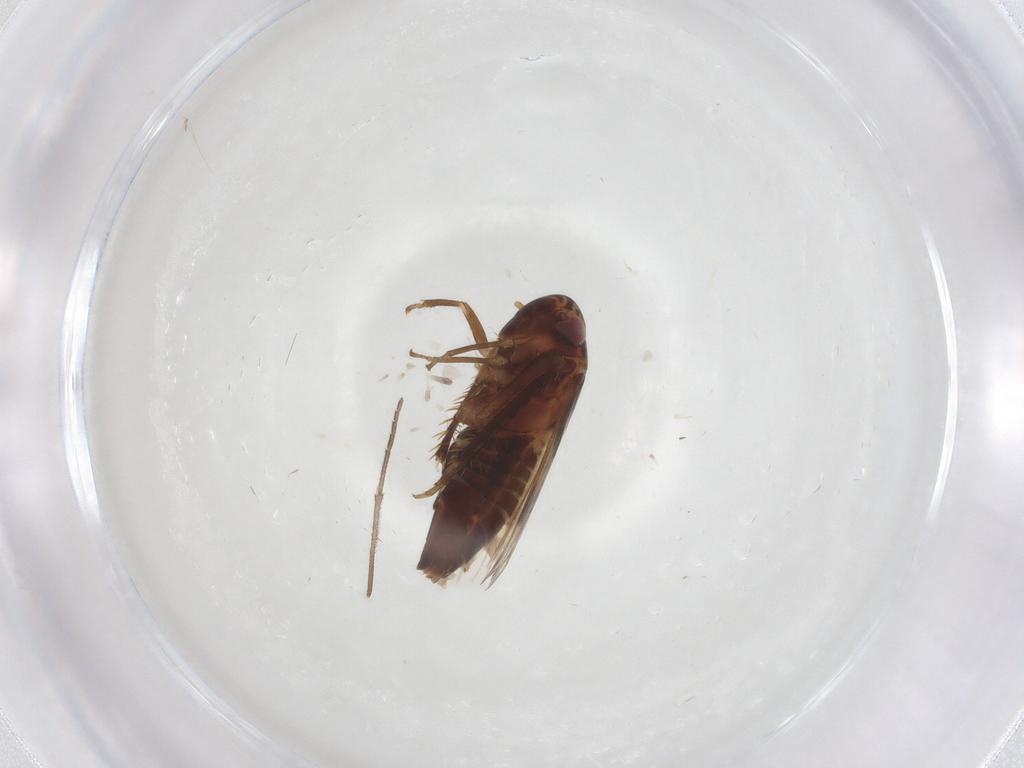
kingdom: Animalia
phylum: Arthropoda
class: Insecta
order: Hemiptera
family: Cicadellidae
